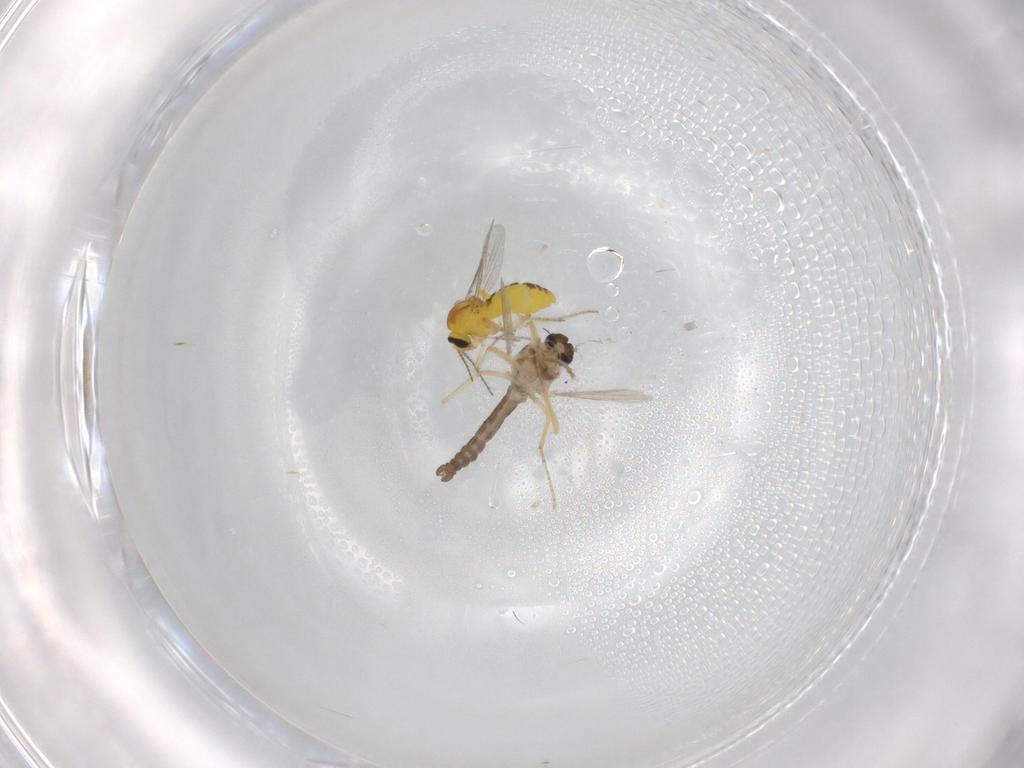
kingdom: Animalia
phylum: Arthropoda
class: Insecta
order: Diptera
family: Ceratopogonidae
